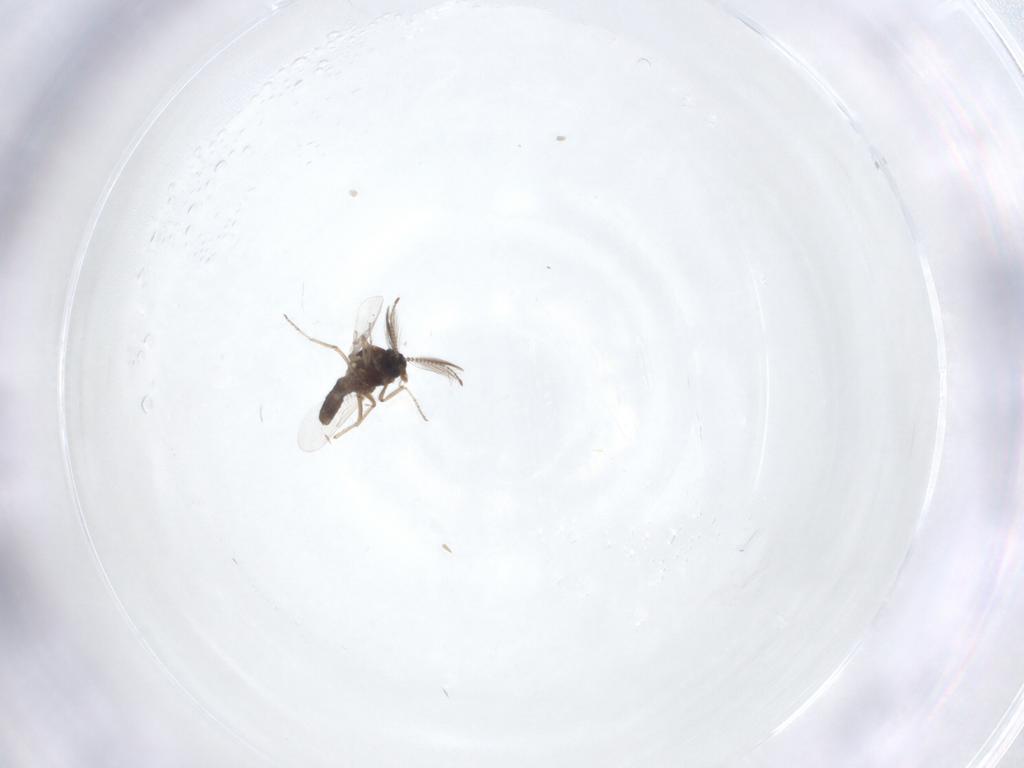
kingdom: Animalia
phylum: Arthropoda
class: Insecta
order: Diptera
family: Ceratopogonidae
